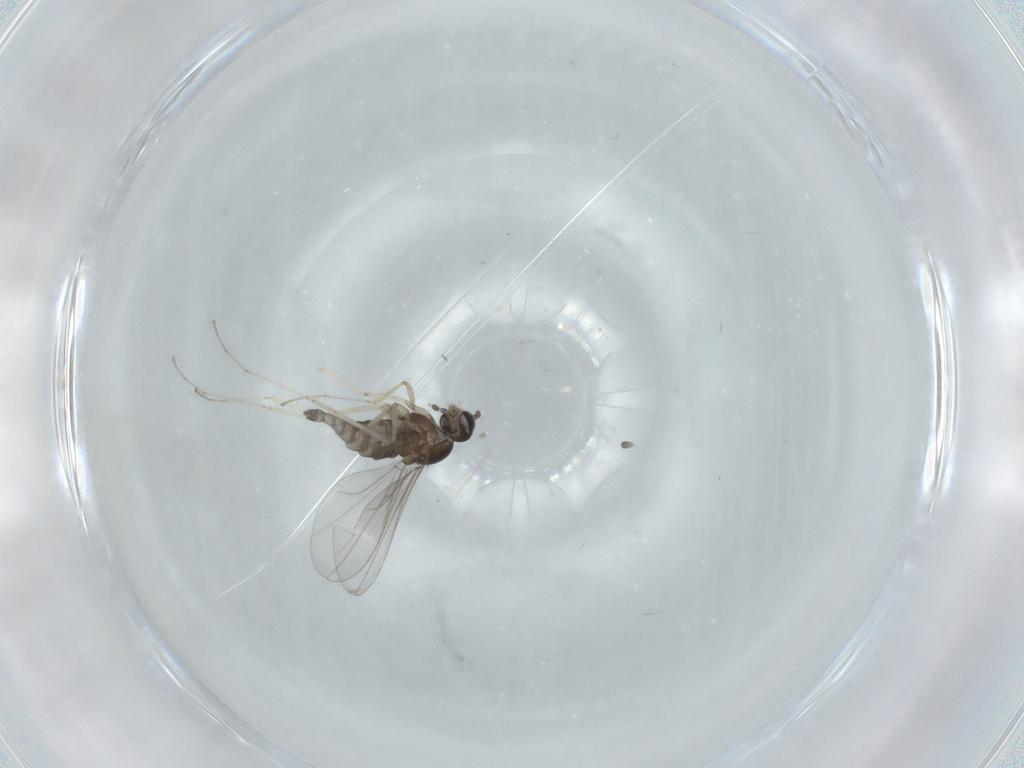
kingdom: Animalia
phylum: Arthropoda
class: Insecta
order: Diptera
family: Cecidomyiidae
